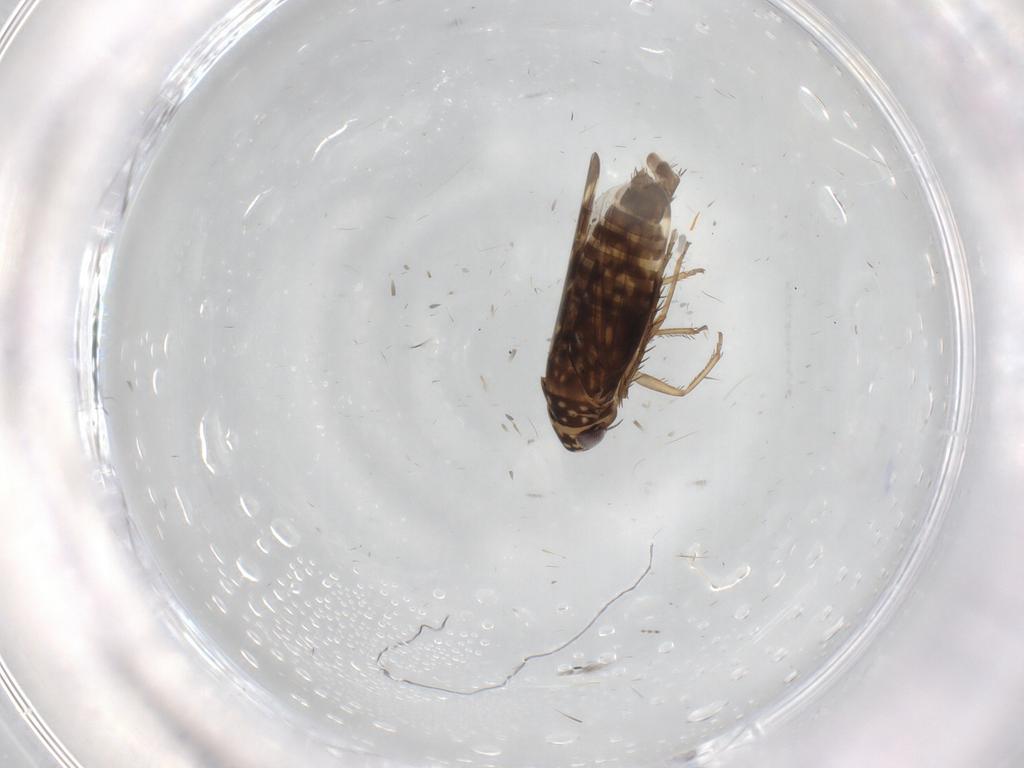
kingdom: Animalia
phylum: Arthropoda
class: Insecta
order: Hemiptera
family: Cicadellidae
